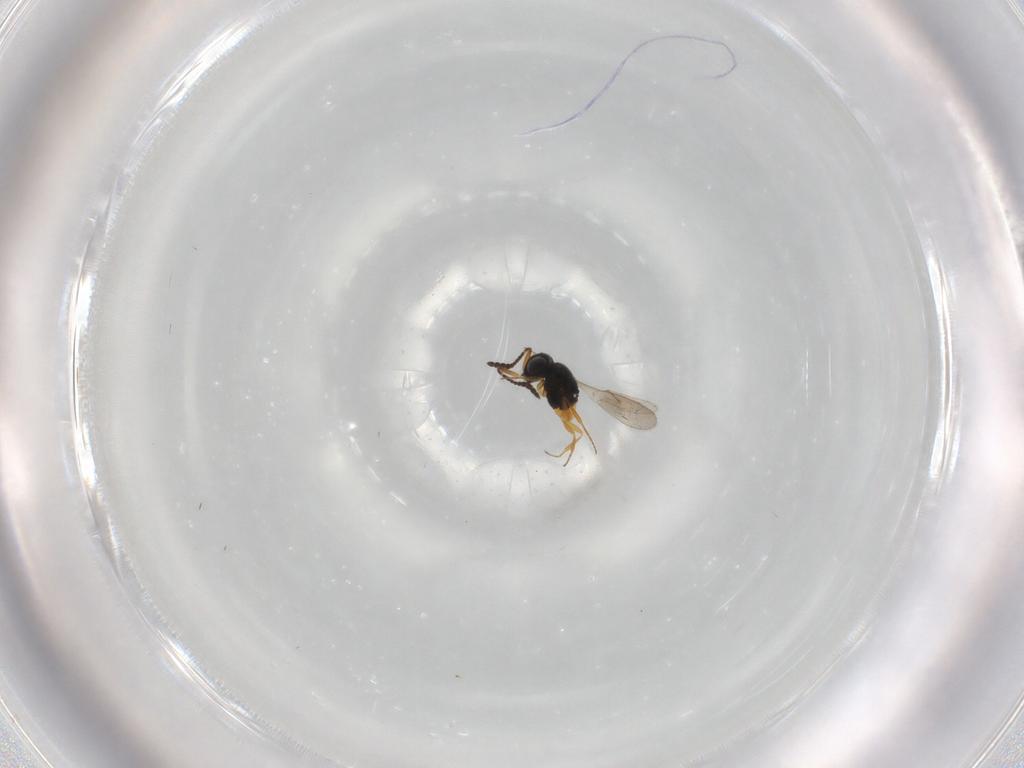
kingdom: Animalia
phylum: Arthropoda
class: Insecta
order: Hymenoptera
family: Scelionidae
